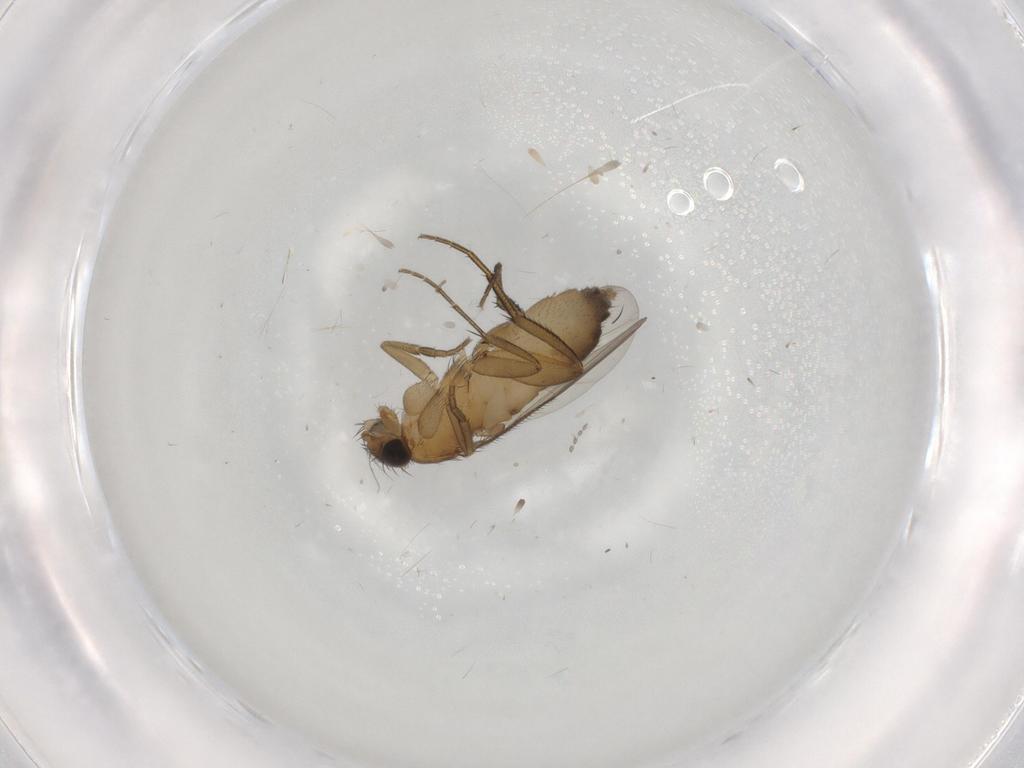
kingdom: Animalia
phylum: Arthropoda
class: Insecta
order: Diptera
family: Phoridae
